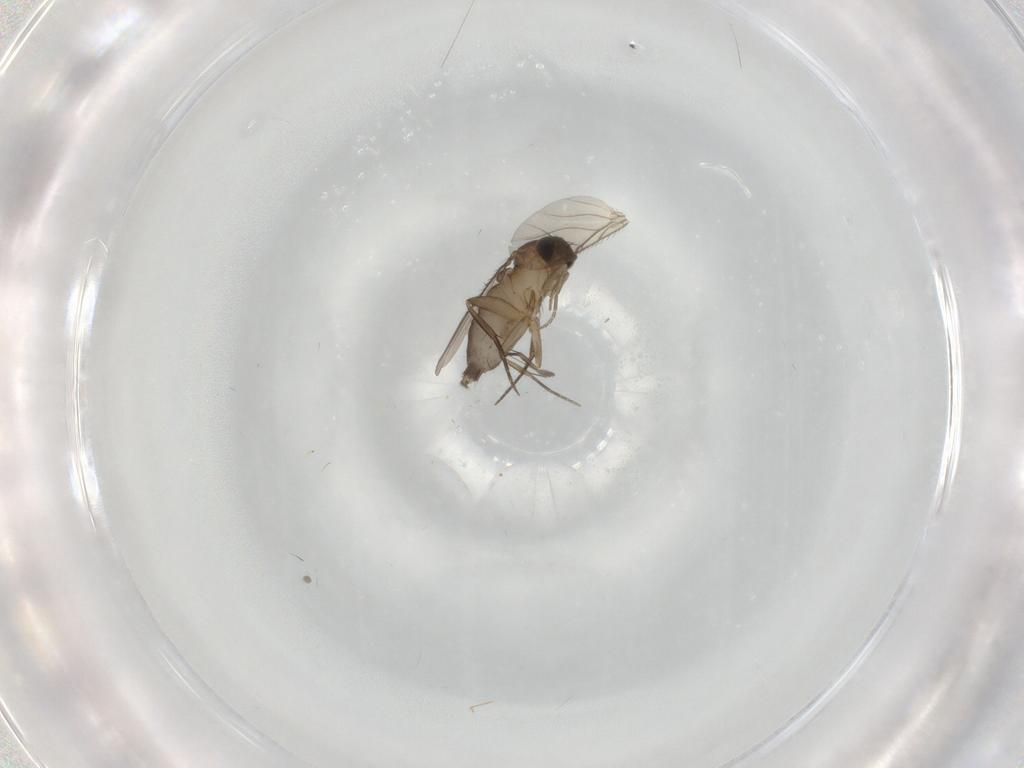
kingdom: Animalia
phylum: Arthropoda
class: Insecta
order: Diptera
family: Phoridae
